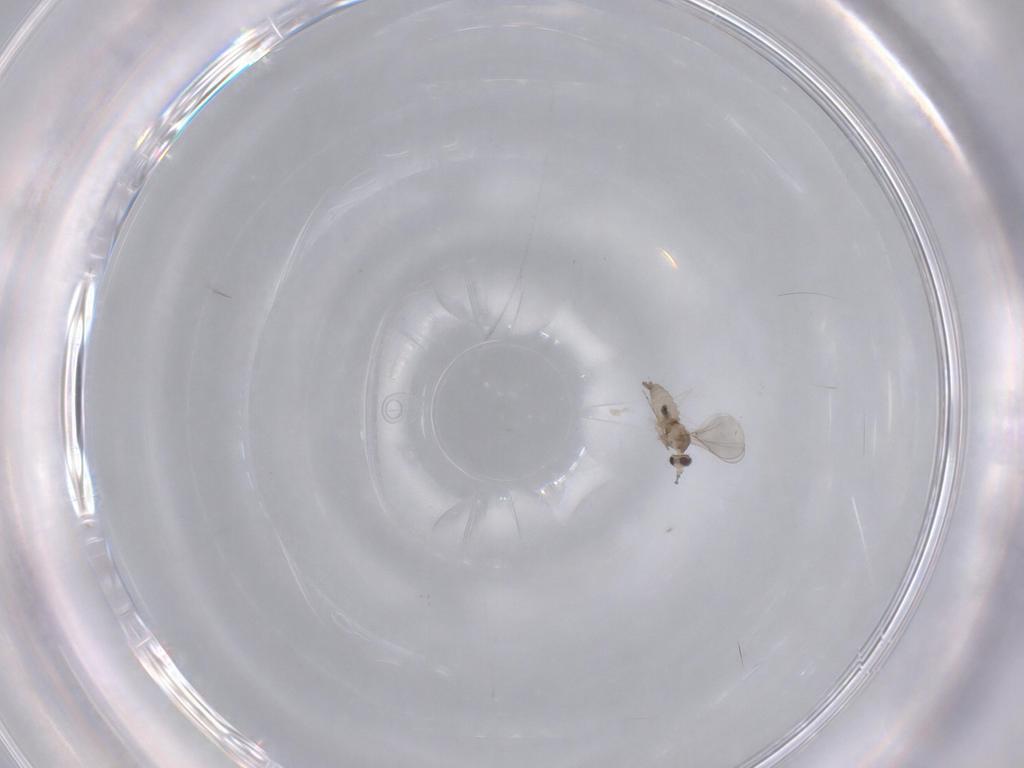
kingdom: Animalia
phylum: Arthropoda
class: Insecta
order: Diptera
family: Cecidomyiidae
